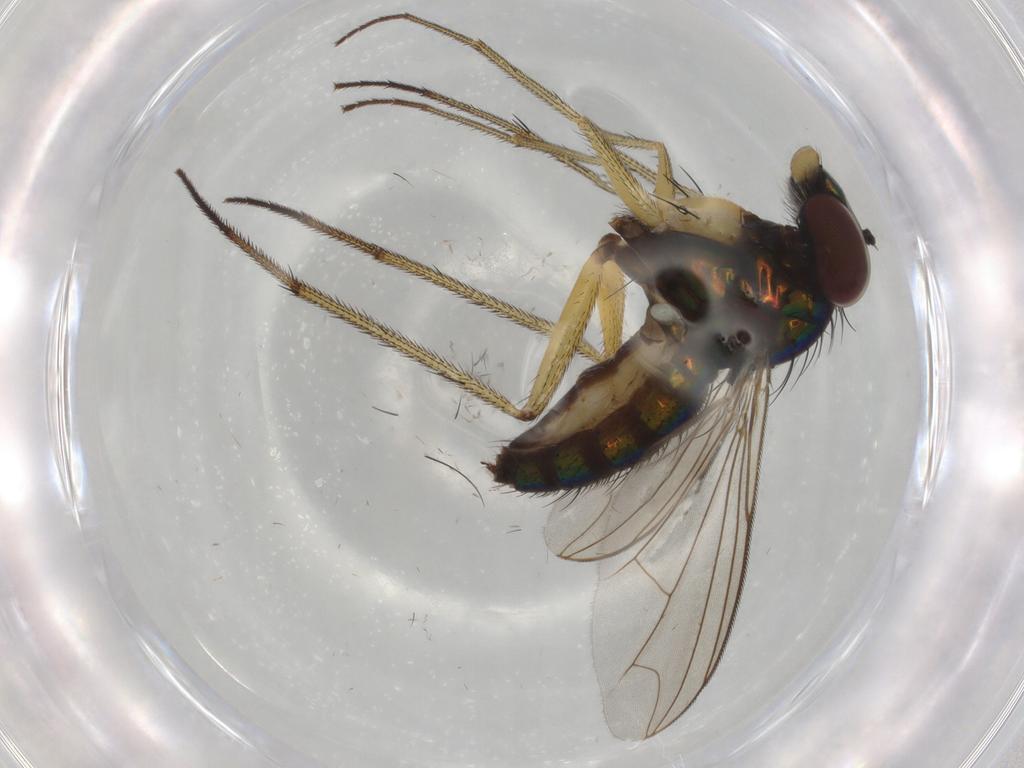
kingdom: Animalia
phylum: Arthropoda
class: Insecta
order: Diptera
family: Dolichopodidae
